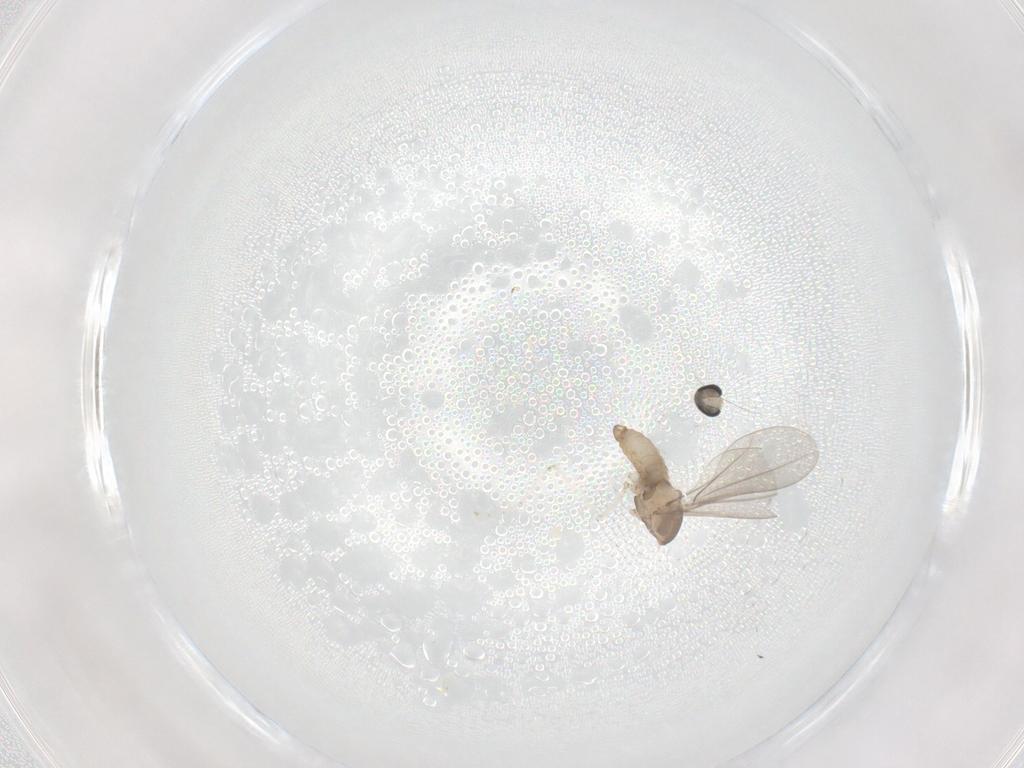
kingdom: Animalia
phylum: Arthropoda
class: Insecta
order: Diptera
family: Cecidomyiidae
